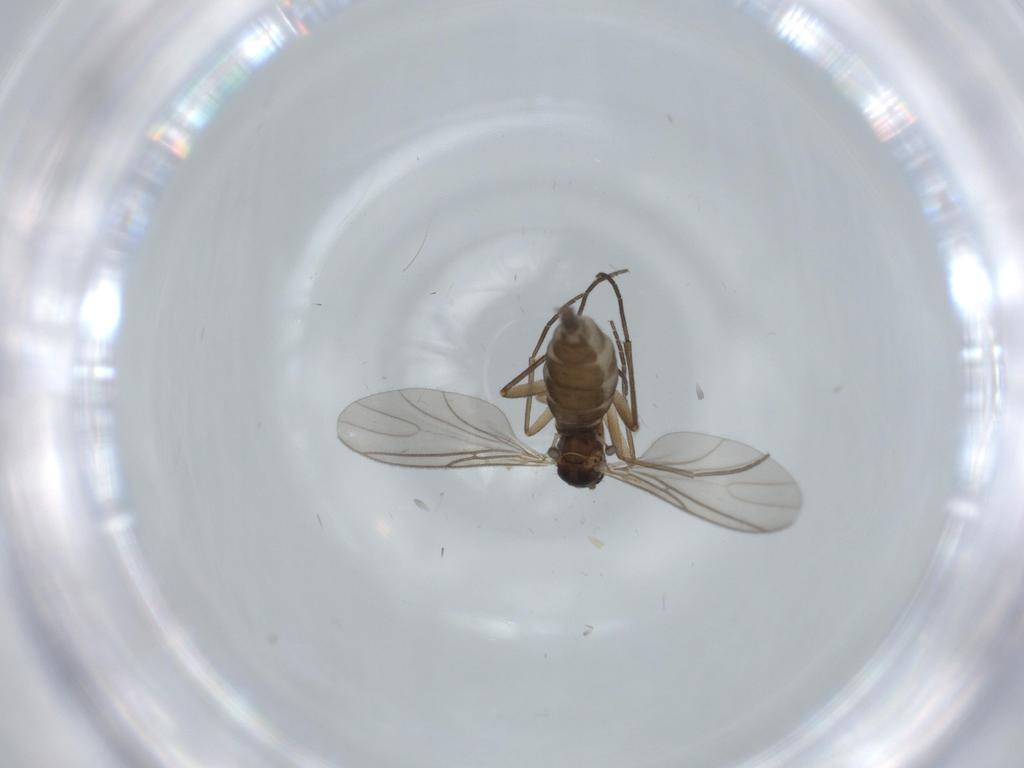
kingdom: Animalia
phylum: Arthropoda
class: Insecta
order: Diptera
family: Sciaridae
